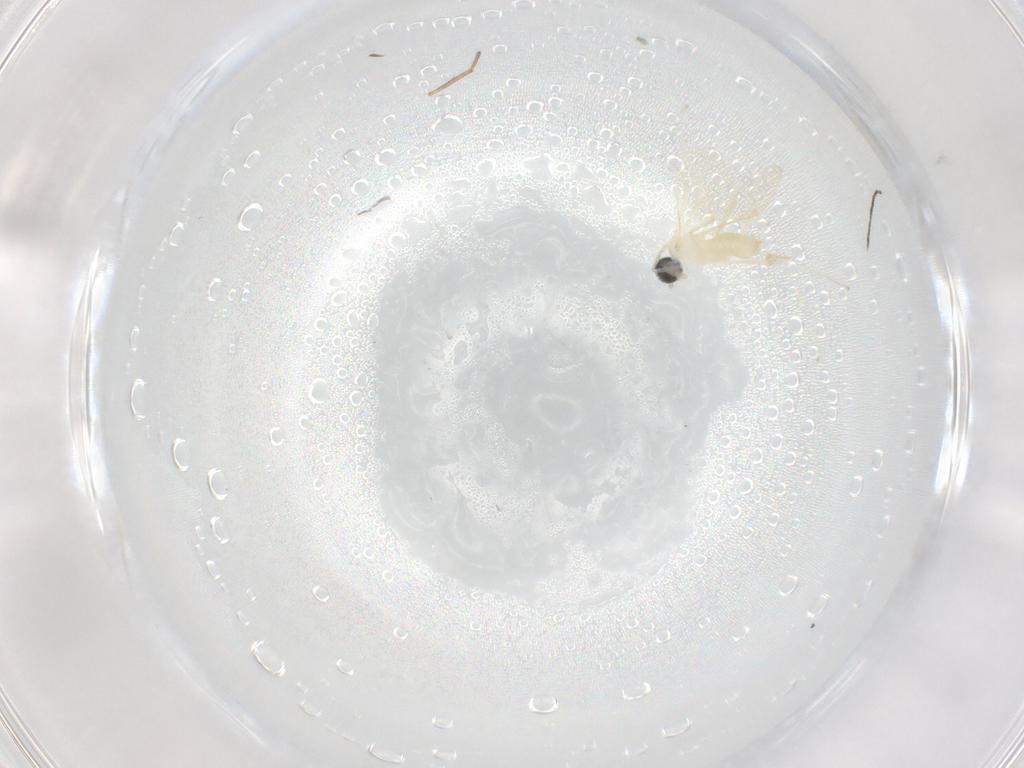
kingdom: Animalia
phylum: Arthropoda
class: Insecta
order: Diptera
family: Cecidomyiidae
